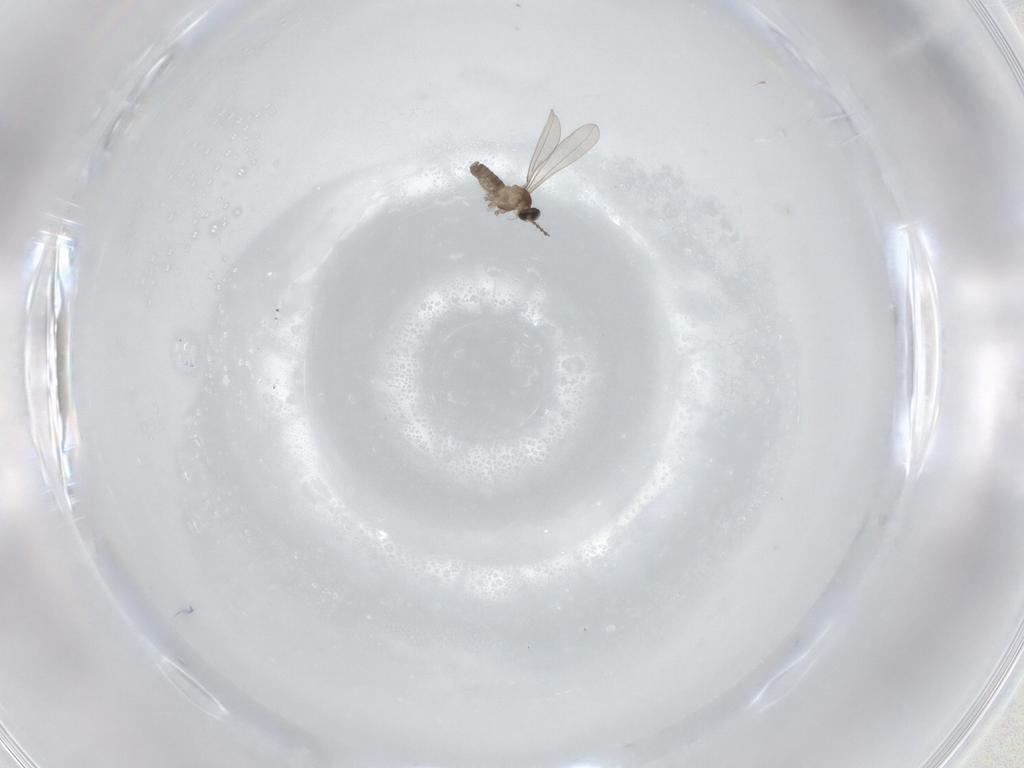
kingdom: Animalia
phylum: Arthropoda
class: Insecta
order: Diptera
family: Cecidomyiidae
